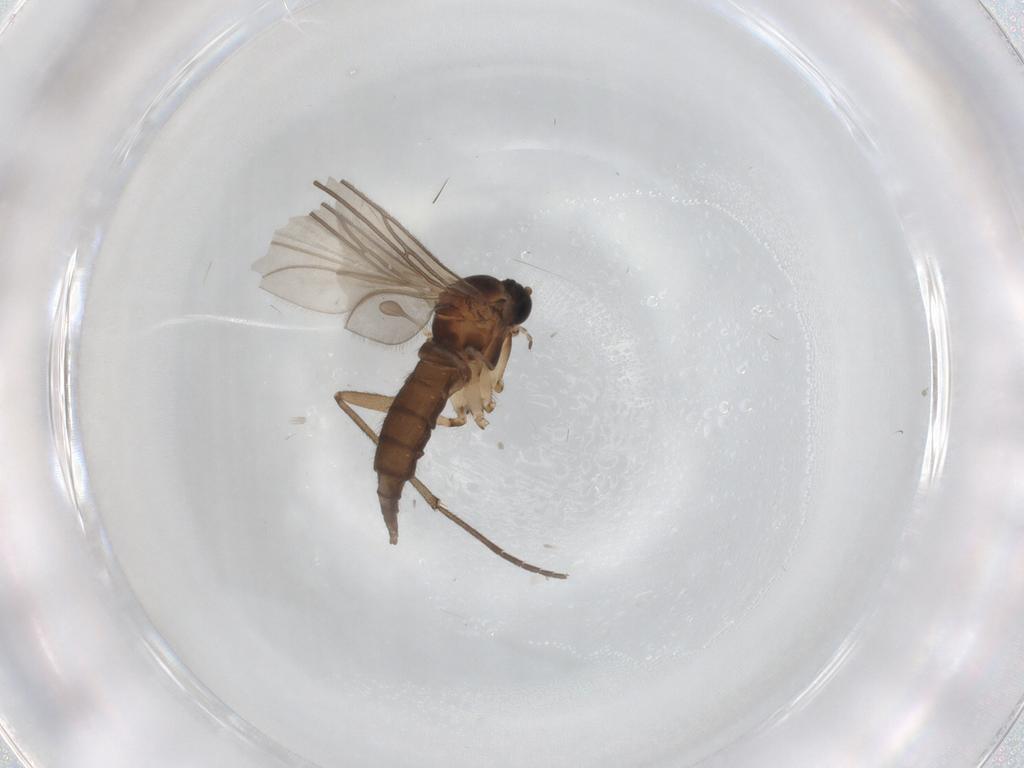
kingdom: Animalia
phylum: Arthropoda
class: Insecta
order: Diptera
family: Sciaridae
